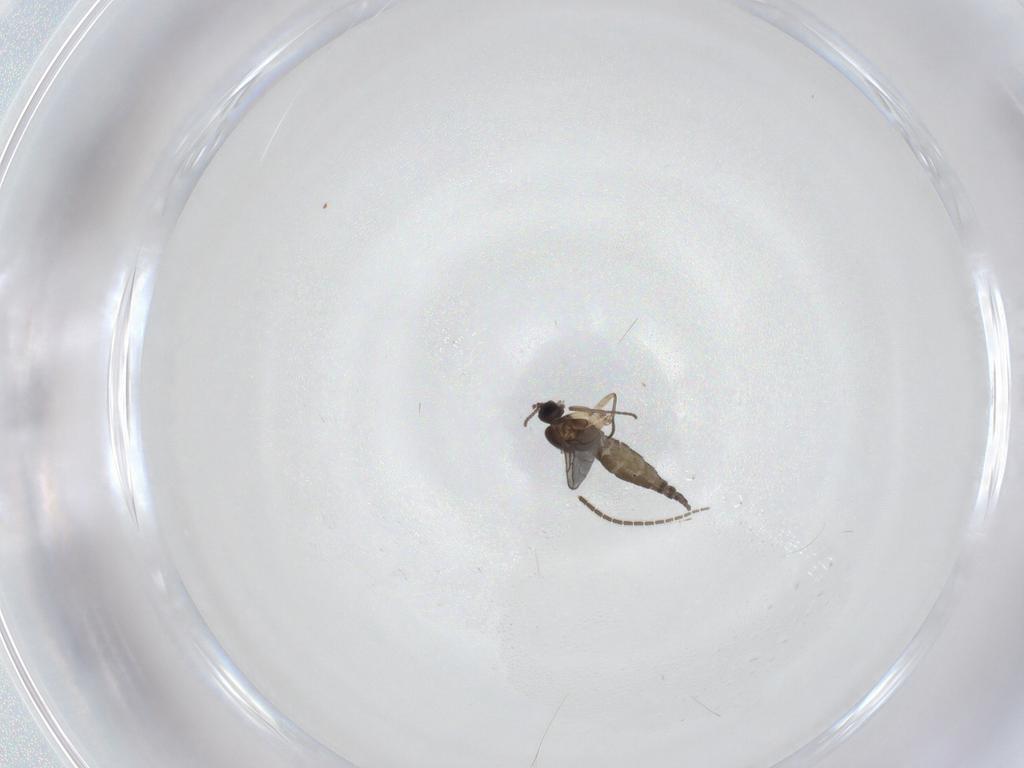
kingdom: Animalia
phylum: Arthropoda
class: Insecta
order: Diptera
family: Sciaridae
